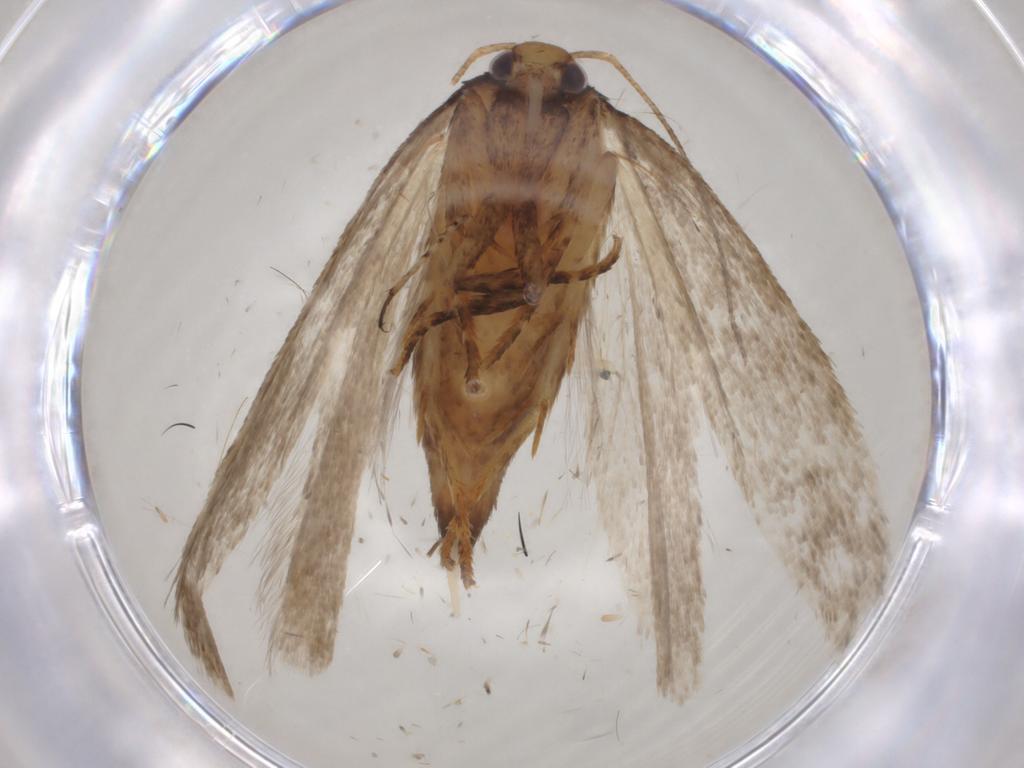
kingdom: Animalia
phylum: Arthropoda
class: Insecta
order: Lepidoptera
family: Gelechiidae
